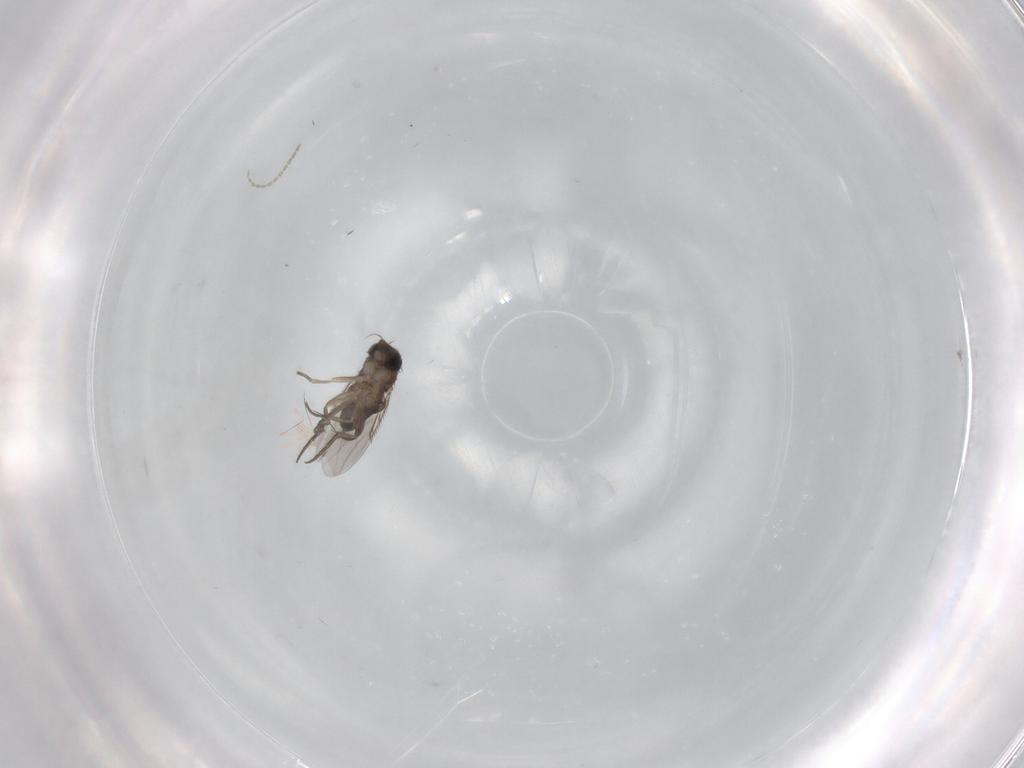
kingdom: Animalia
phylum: Arthropoda
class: Insecta
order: Diptera
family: Phoridae
